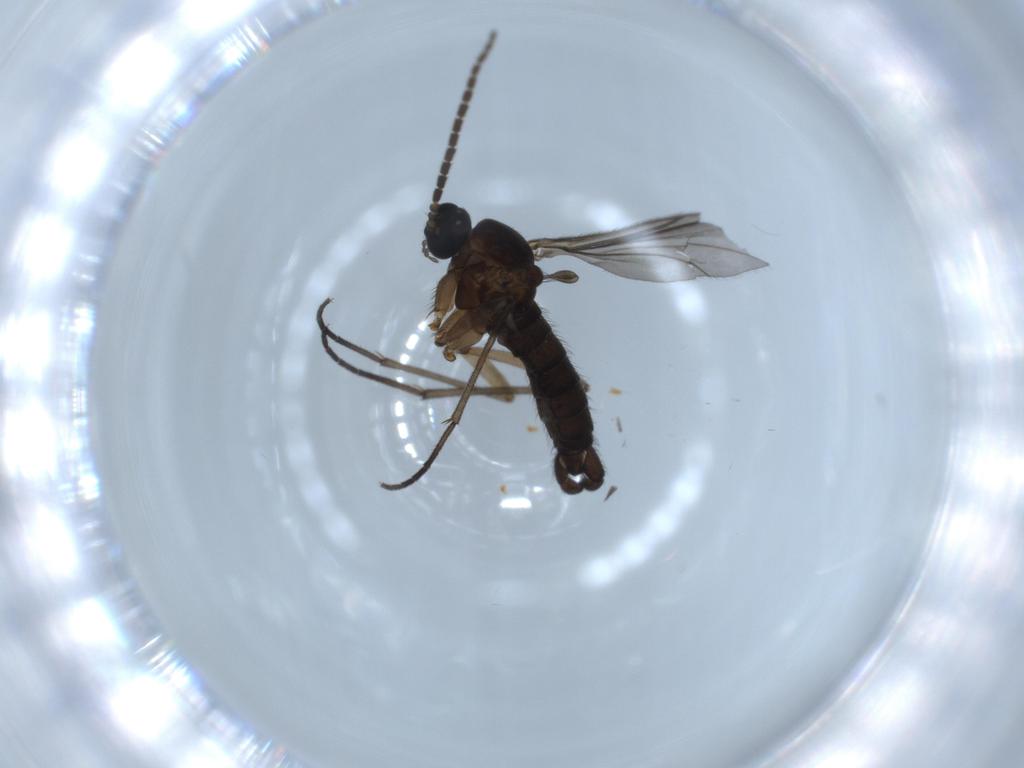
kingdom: Animalia
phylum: Arthropoda
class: Insecta
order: Diptera
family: Sciaridae
